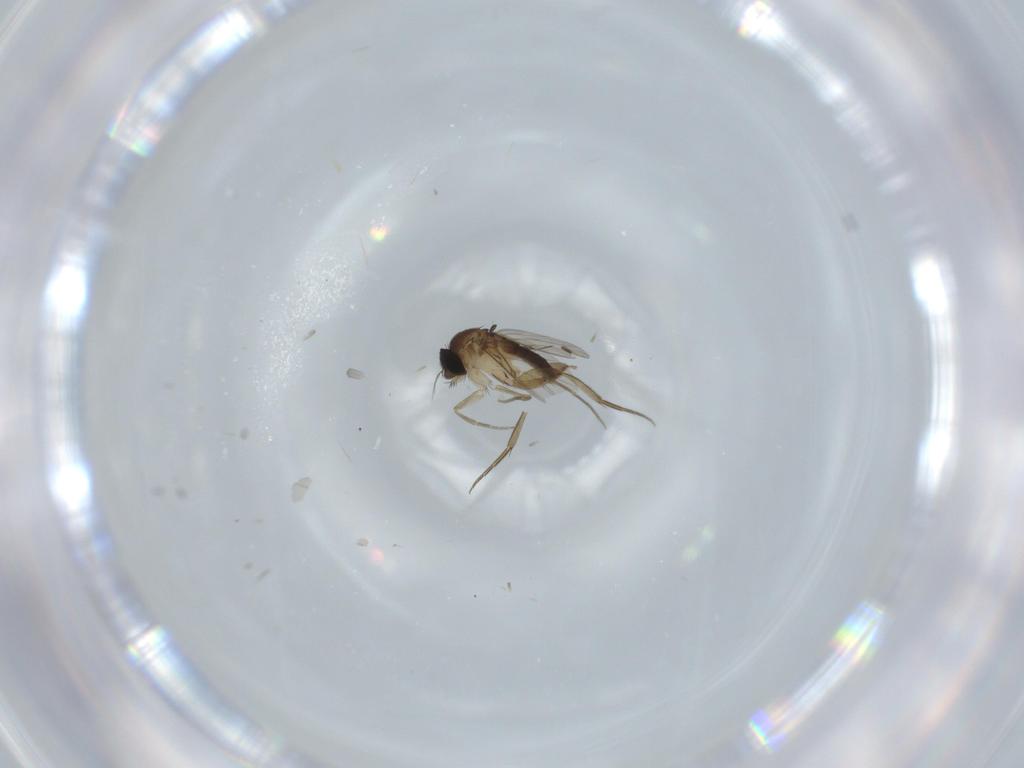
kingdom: Animalia
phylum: Arthropoda
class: Insecta
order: Diptera
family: Phoridae
